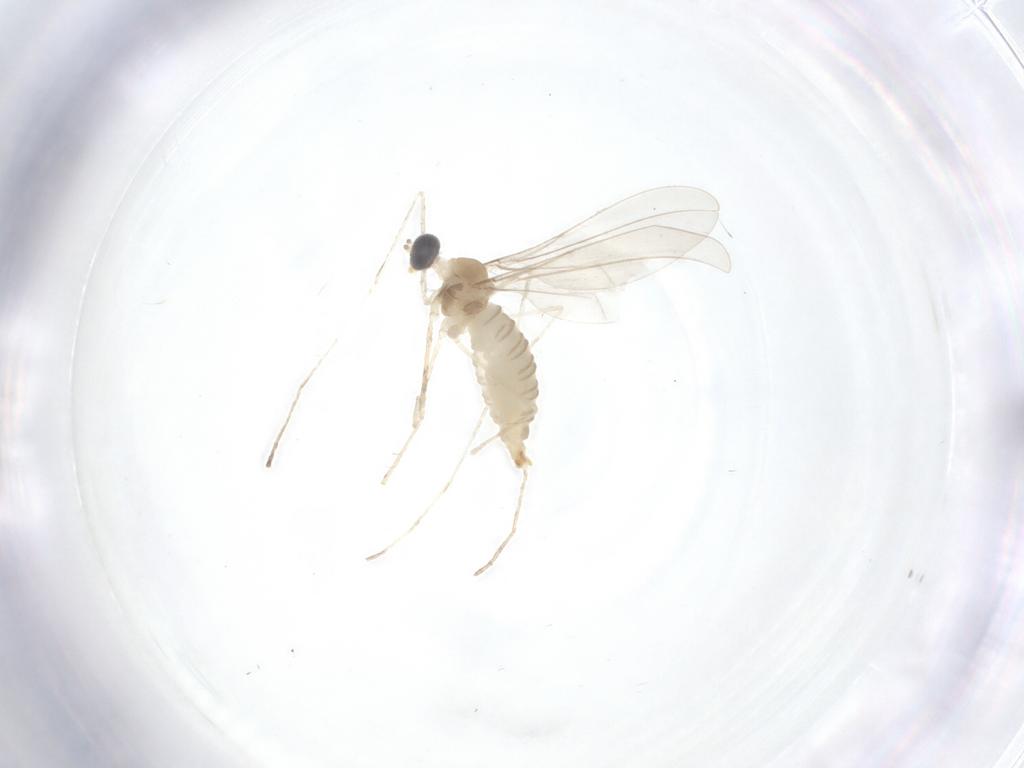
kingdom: Animalia
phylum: Arthropoda
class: Insecta
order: Diptera
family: Cecidomyiidae
